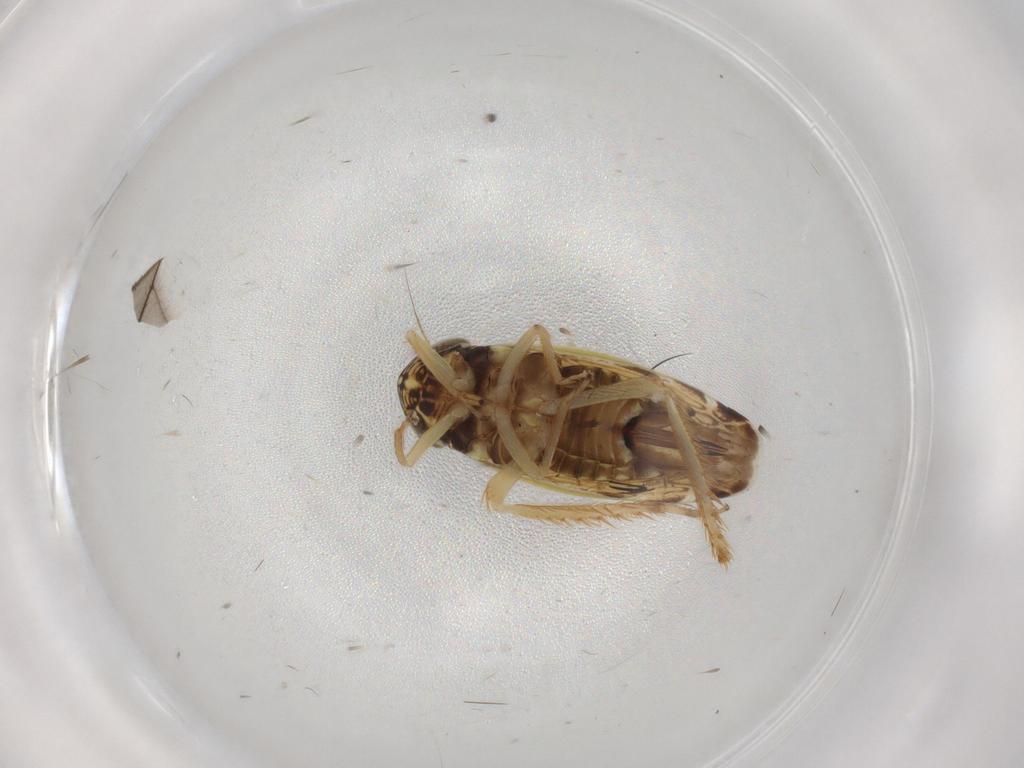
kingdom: Animalia
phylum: Arthropoda
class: Insecta
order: Hemiptera
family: Cicadellidae
